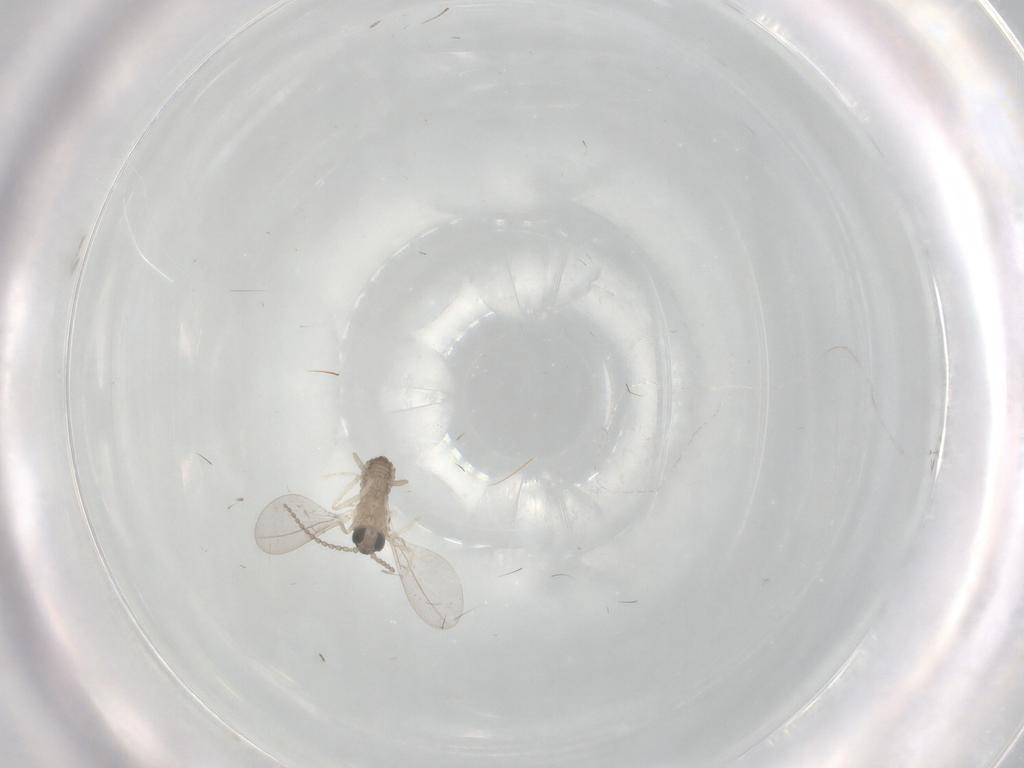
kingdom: Animalia
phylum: Arthropoda
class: Insecta
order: Diptera
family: Cecidomyiidae
